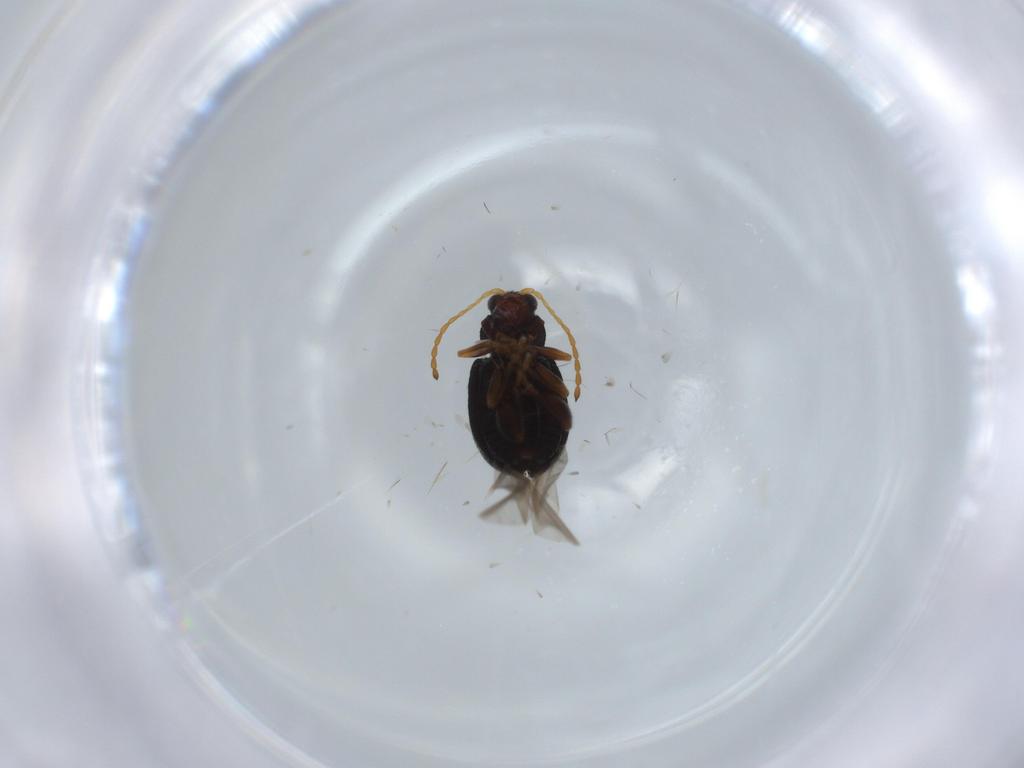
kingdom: Animalia
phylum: Arthropoda
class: Insecta
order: Coleoptera
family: Chrysomelidae
